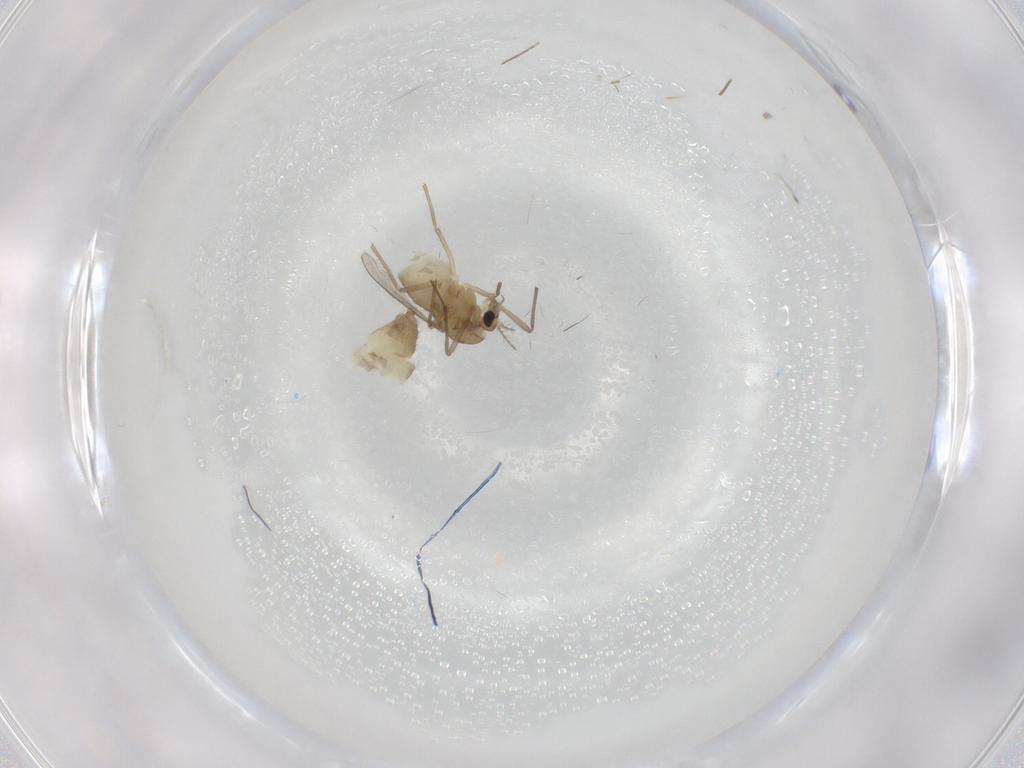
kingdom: Animalia
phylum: Arthropoda
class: Insecta
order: Diptera
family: Chironomidae
